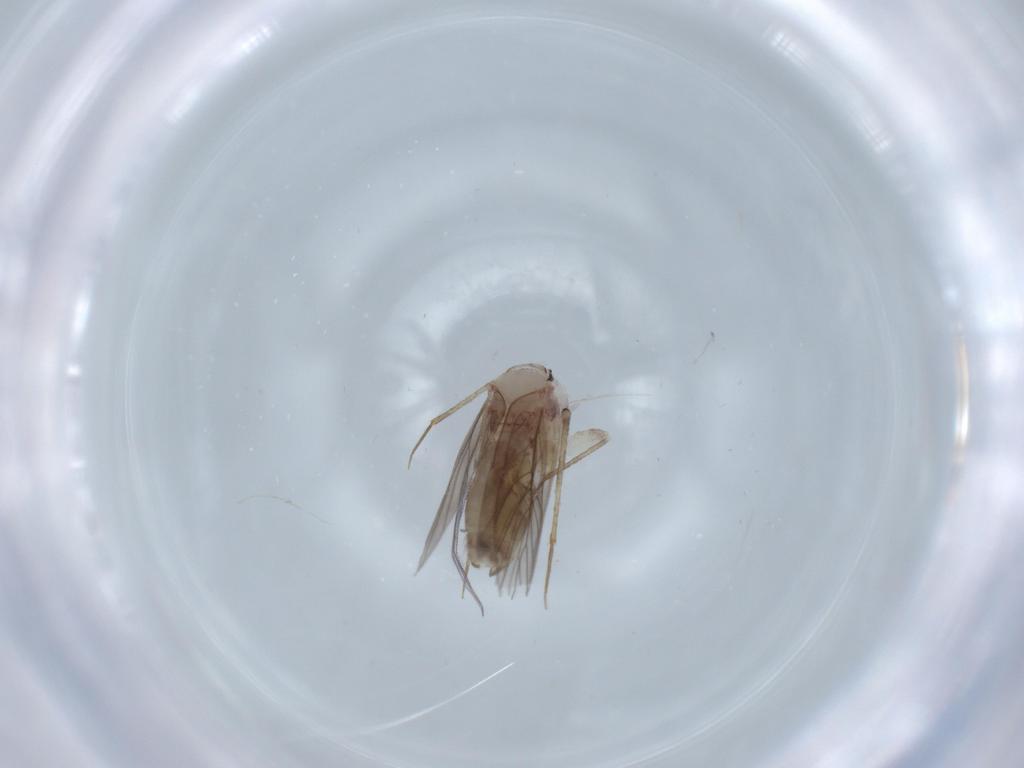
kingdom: Animalia
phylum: Arthropoda
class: Insecta
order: Psocodea
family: Lepidopsocidae
